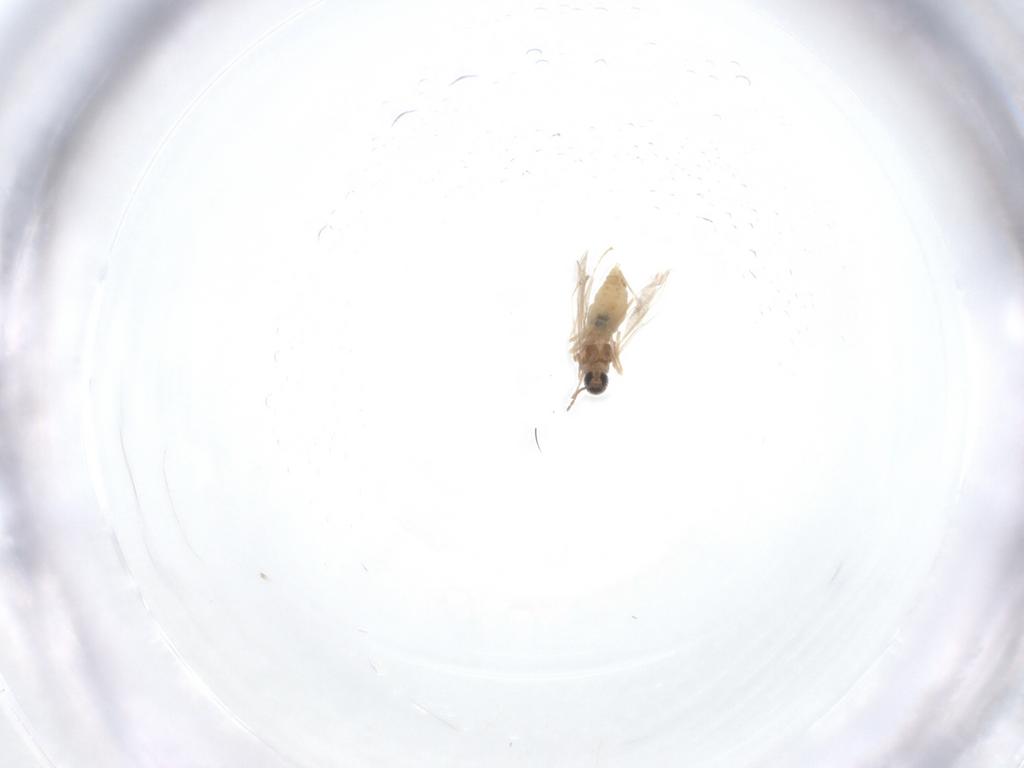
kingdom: Animalia
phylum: Arthropoda
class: Insecta
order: Diptera
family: Cecidomyiidae
